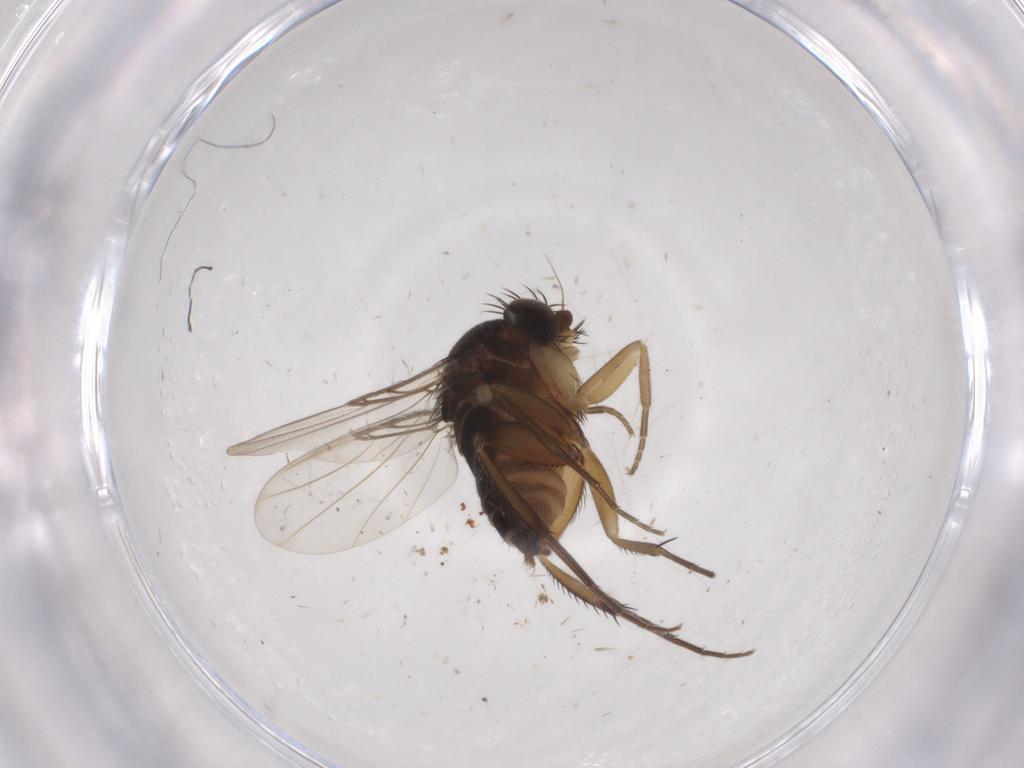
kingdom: Animalia
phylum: Arthropoda
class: Insecta
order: Diptera
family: Phoridae
